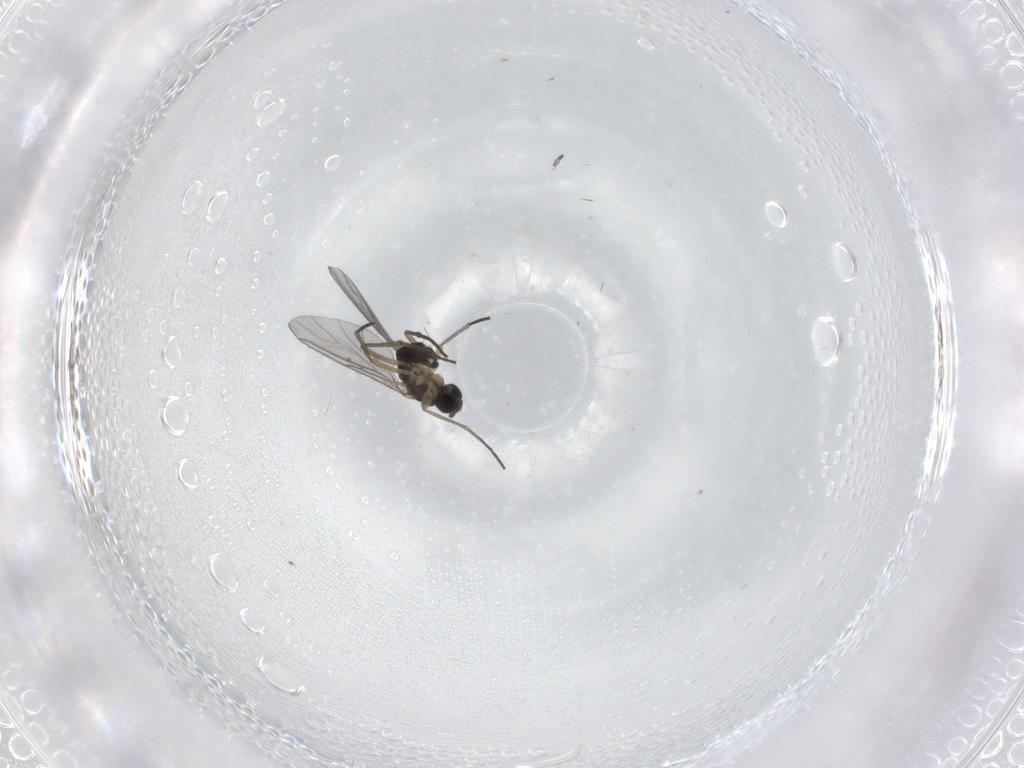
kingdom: Animalia
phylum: Arthropoda
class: Insecta
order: Diptera
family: Sciaridae
